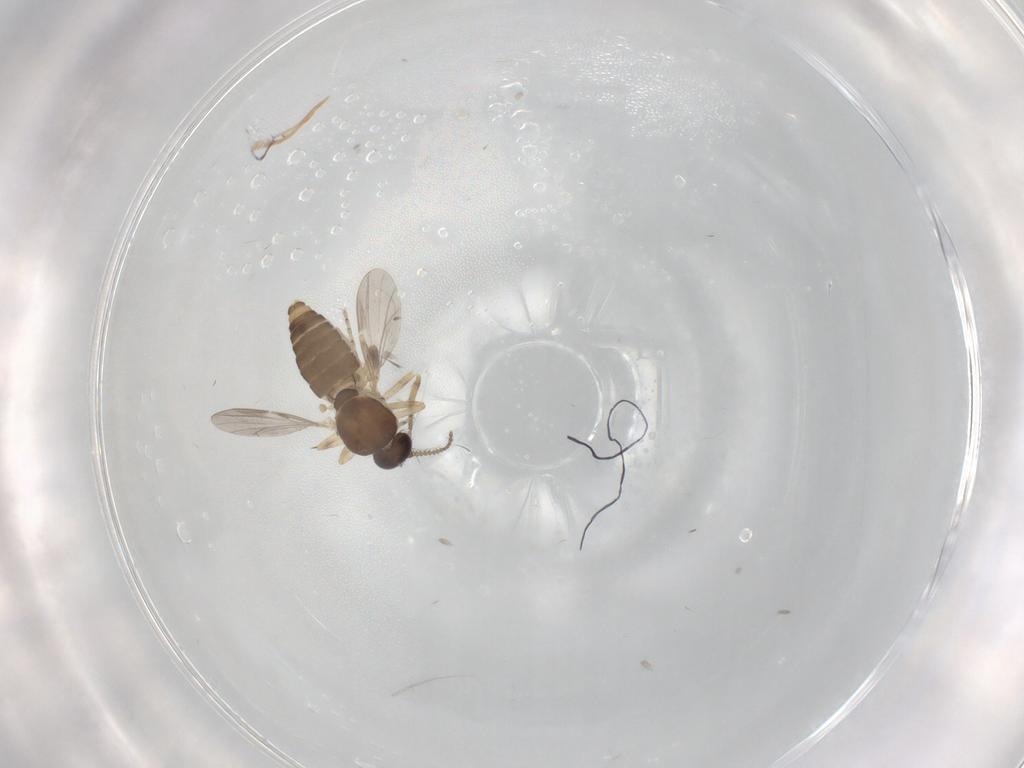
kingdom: Animalia
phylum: Arthropoda
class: Insecta
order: Diptera
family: Ceratopogonidae
